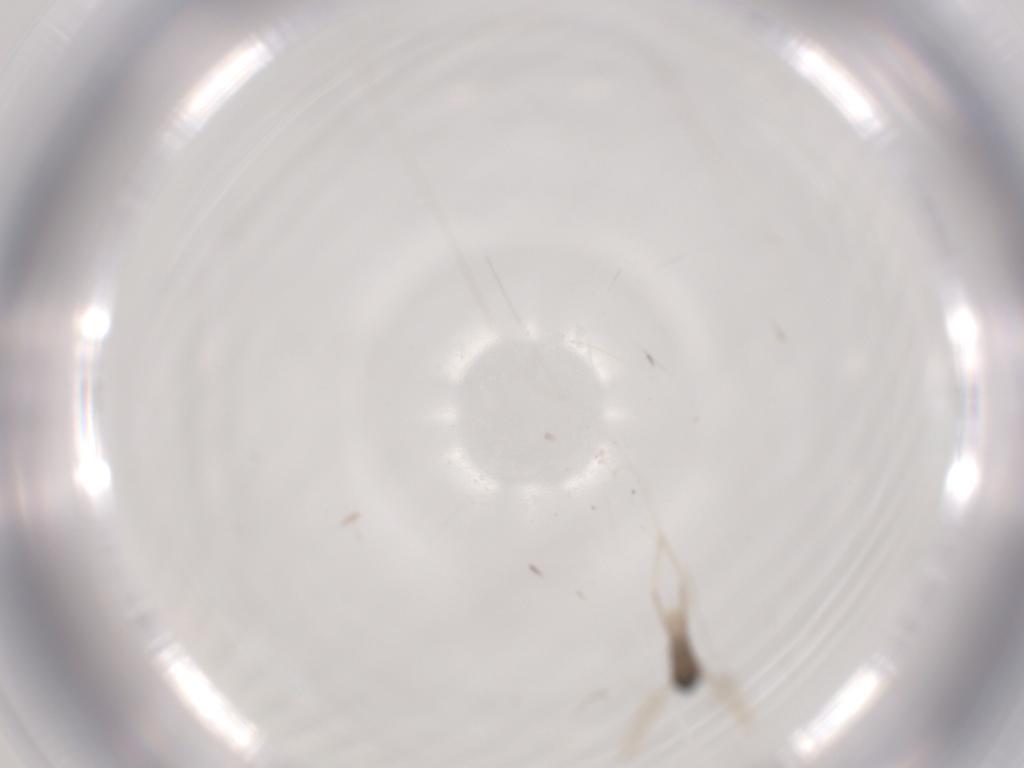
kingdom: Animalia
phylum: Arthropoda
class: Insecta
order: Diptera
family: Cecidomyiidae
